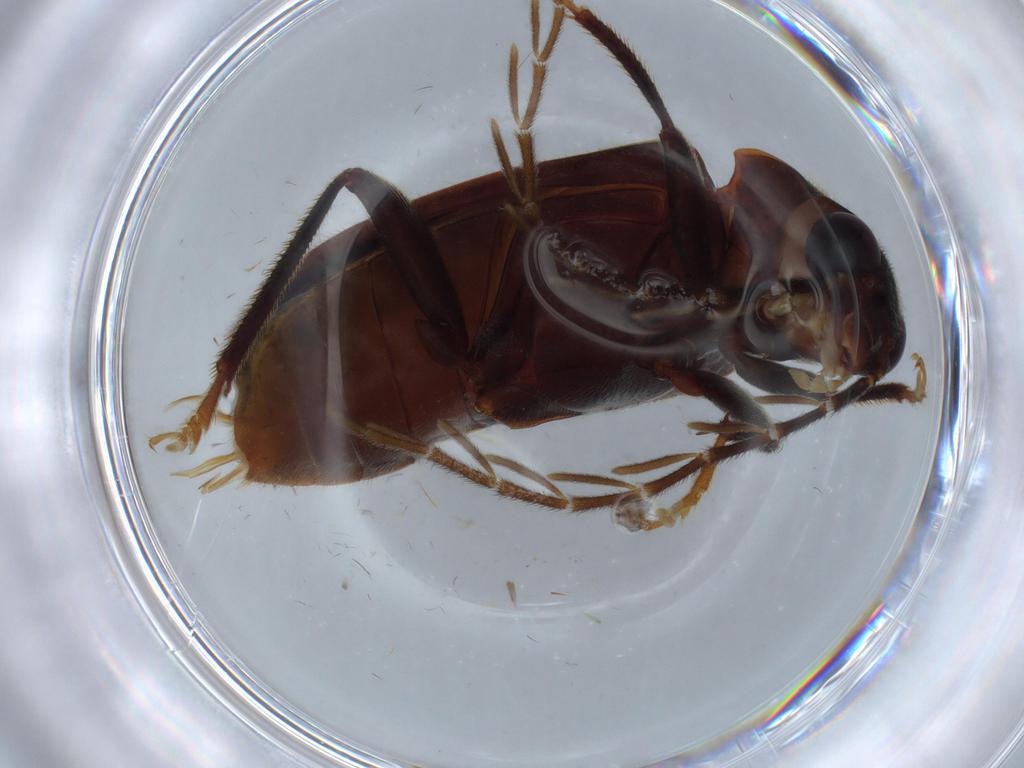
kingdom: Animalia
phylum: Arthropoda
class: Insecta
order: Coleoptera
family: Ptilodactylidae
